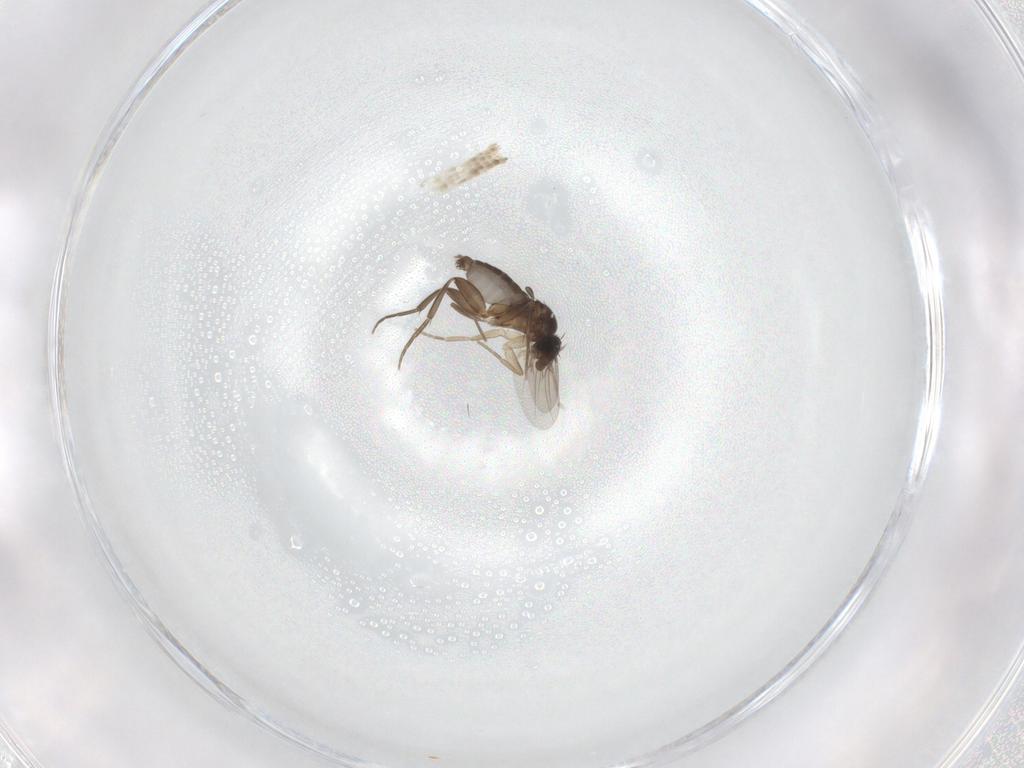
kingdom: Animalia
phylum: Arthropoda
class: Insecta
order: Diptera
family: Phoridae
